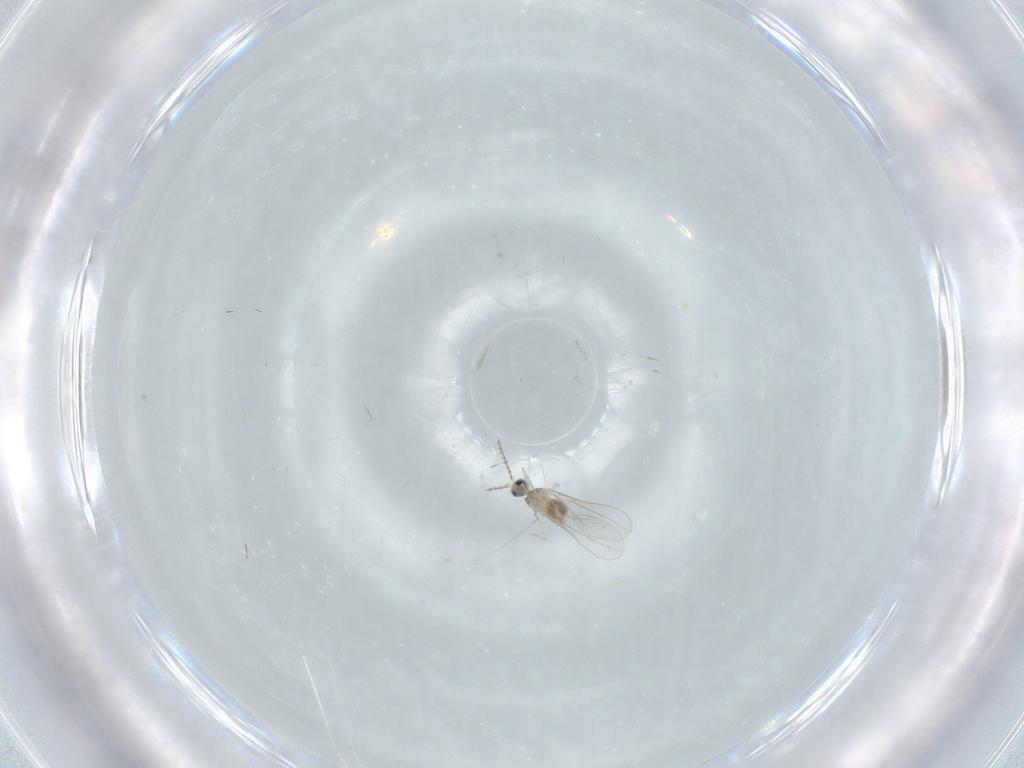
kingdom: Animalia
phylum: Arthropoda
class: Insecta
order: Diptera
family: Cecidomyiidae
